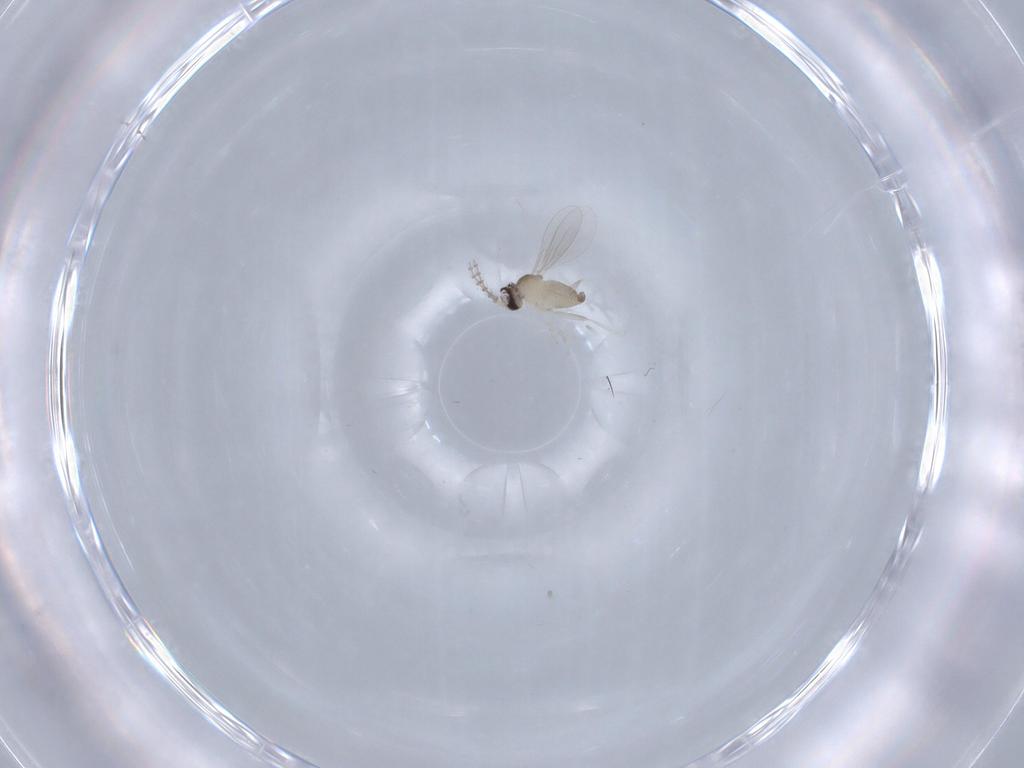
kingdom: Animalia
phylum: Arthropoda
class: Insecta
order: Diptera
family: Cecidomyiidae
